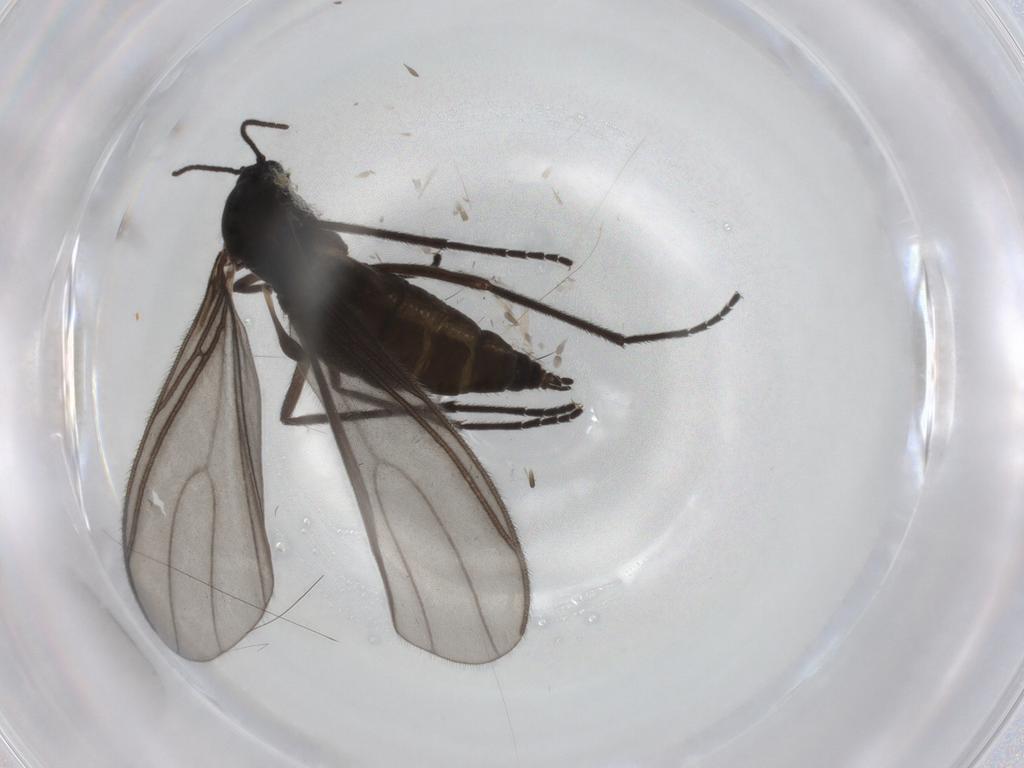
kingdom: Animalia
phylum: Arthropoda
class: Insecta
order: Diptera
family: Sciaridae
